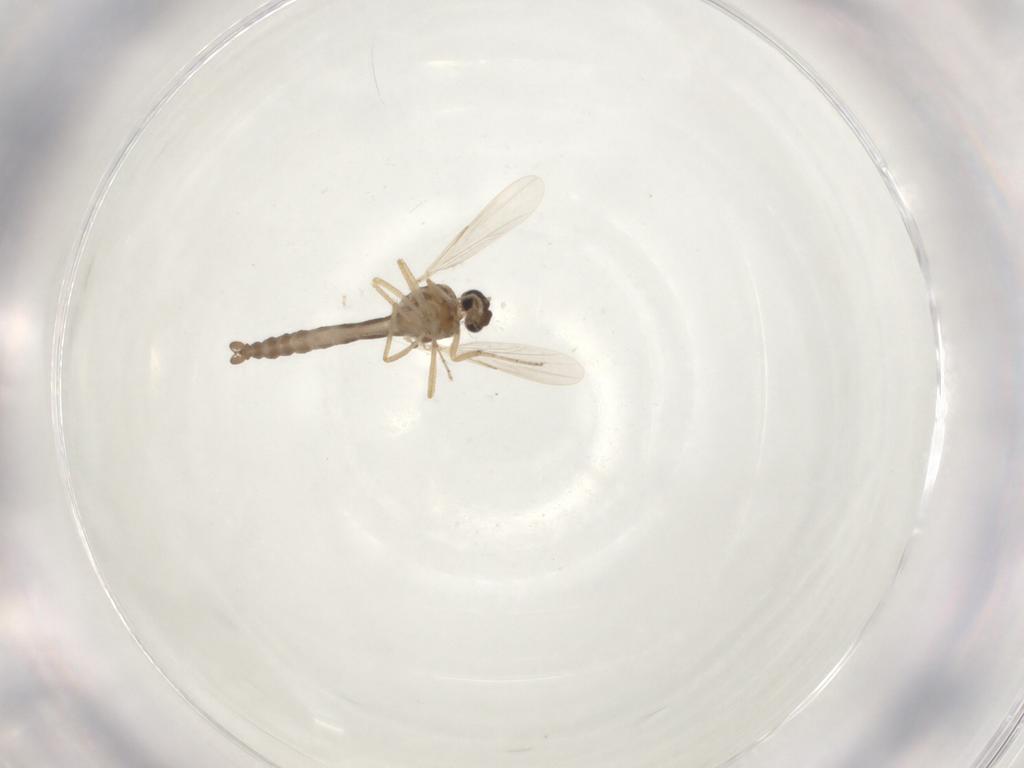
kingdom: Animalia
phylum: Arthropoda
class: Insecta
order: Diptera
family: Ceratopogonidae
